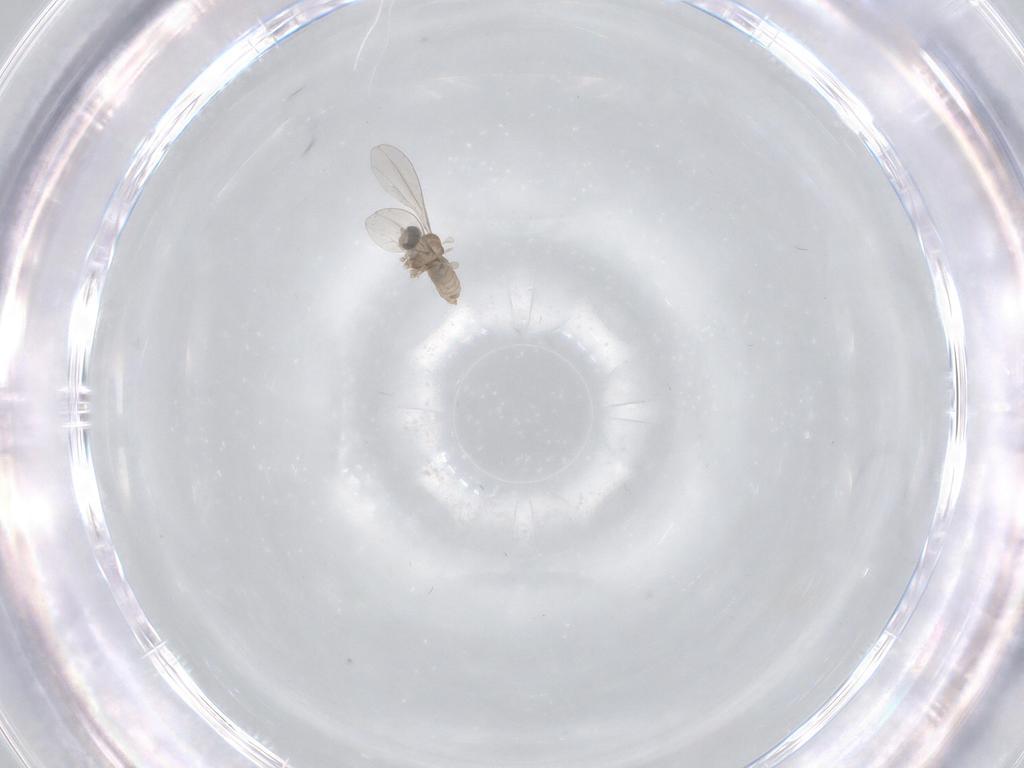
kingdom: Animalia
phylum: Arthropoda
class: Insecta
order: Diptera
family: Cecidomyiidae
